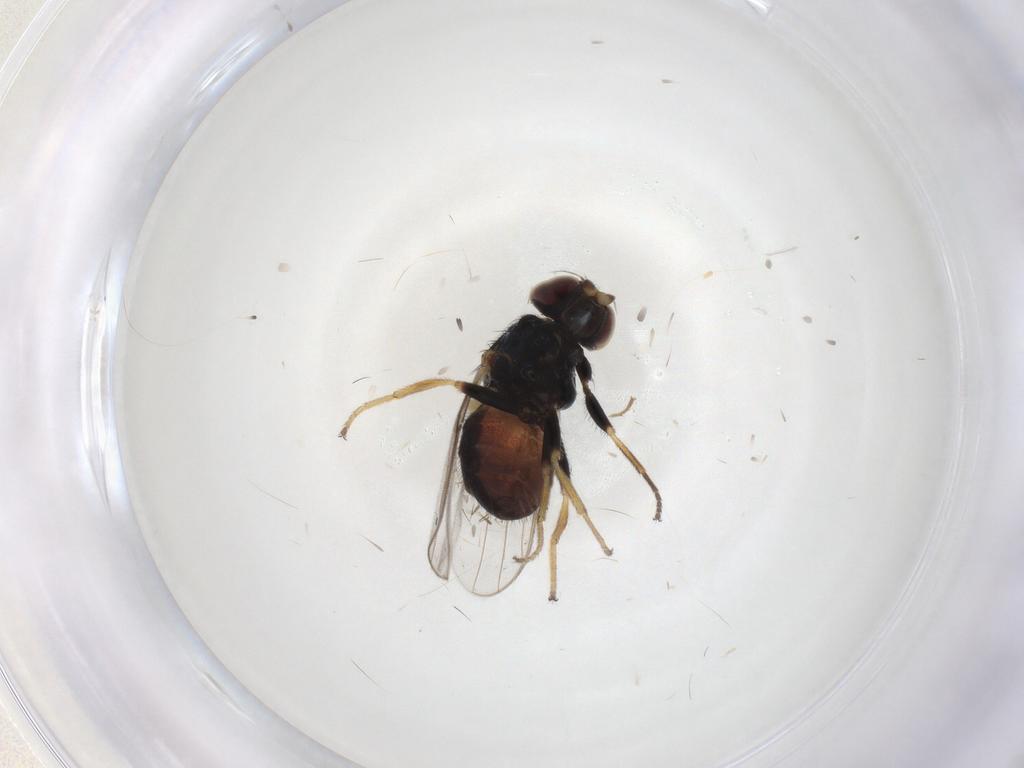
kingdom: Animalia
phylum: Arthropoda
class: Insecta
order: Diptera
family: Chloropidae
